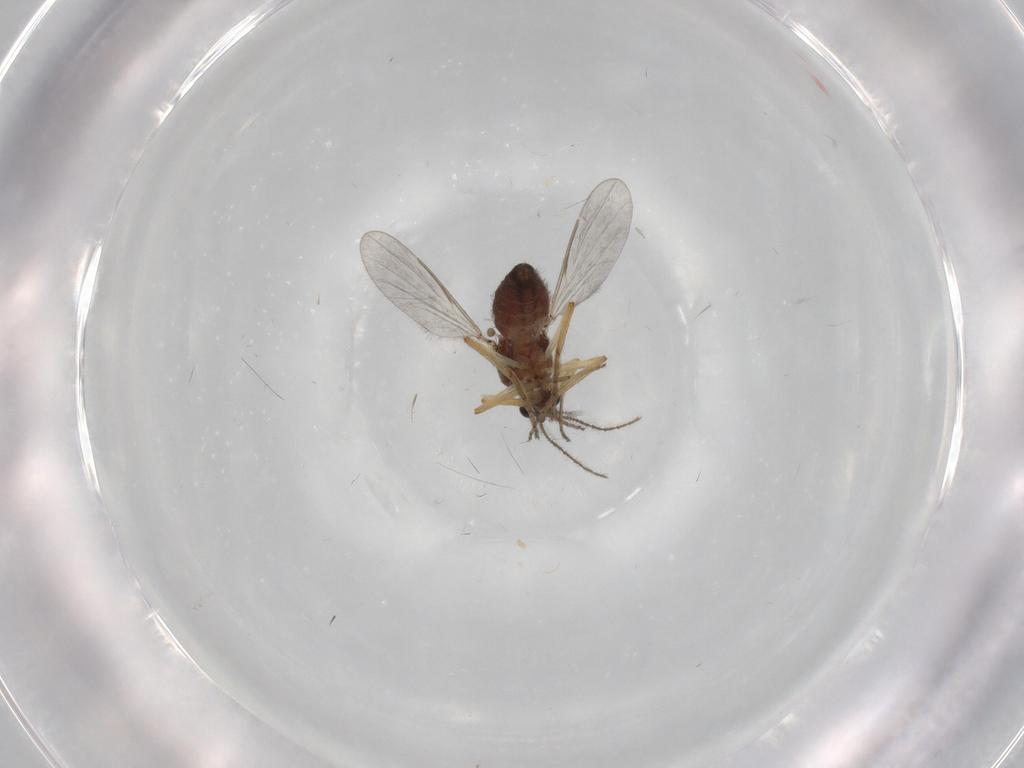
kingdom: Animalia
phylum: Arthropoda
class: Insecta
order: Diptera
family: Ceratopogonidae
